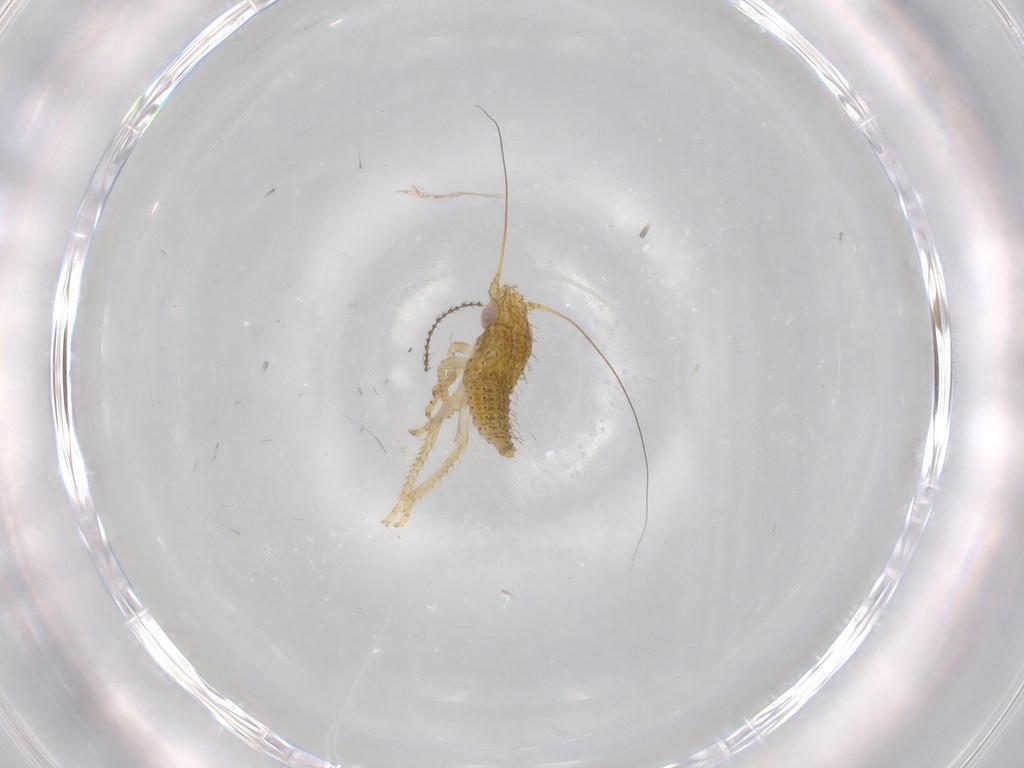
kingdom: Animalia
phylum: Arthropoda
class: Insecta
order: Hemiptera
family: Cicadellidae
